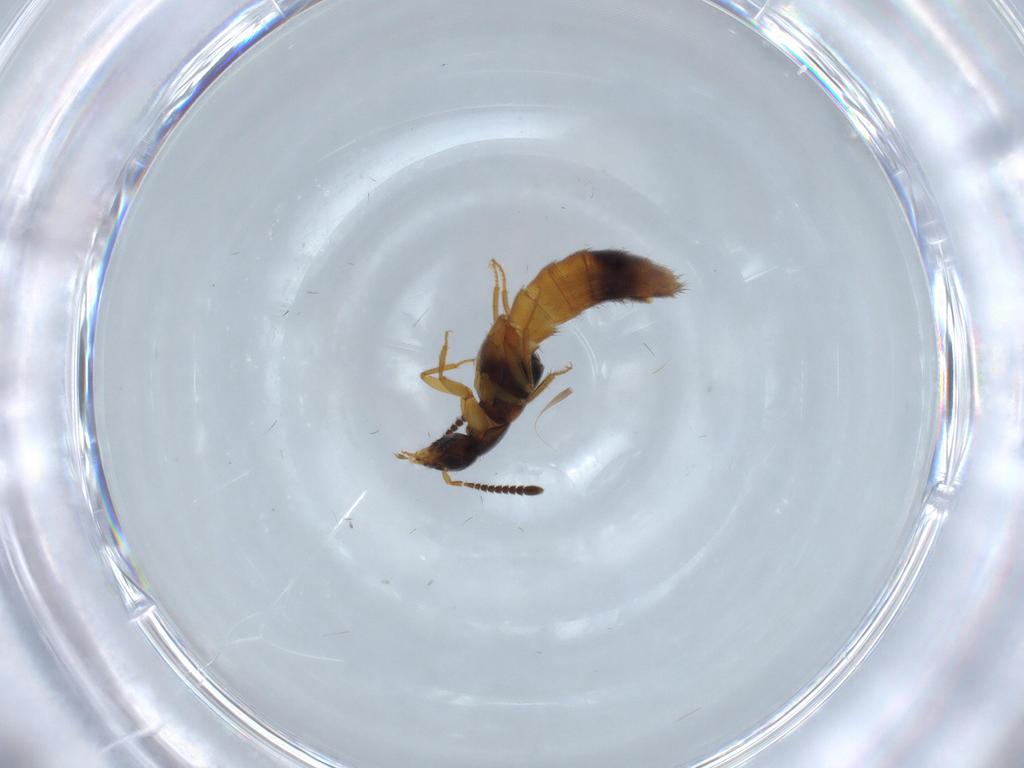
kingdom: Animalia
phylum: Arthropoda
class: Insecta
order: Coleoptera
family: Staphylinidae
